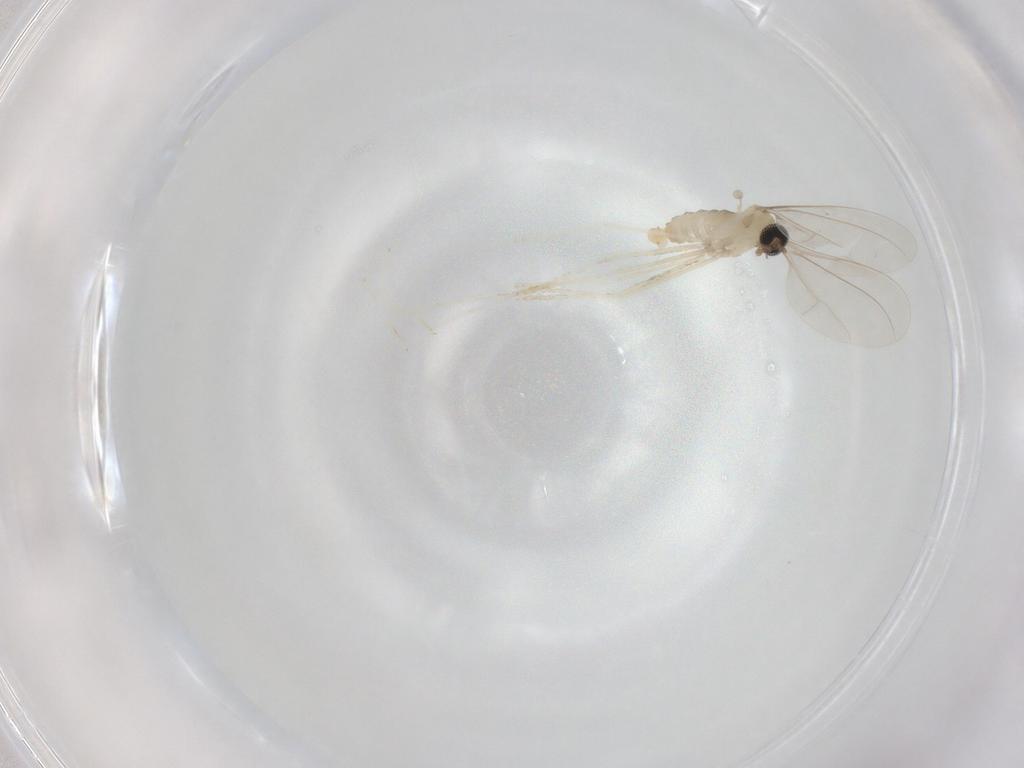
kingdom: Animalia
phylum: Arthropoda
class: Insecta
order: Diptera
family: Cecidomyiidae
